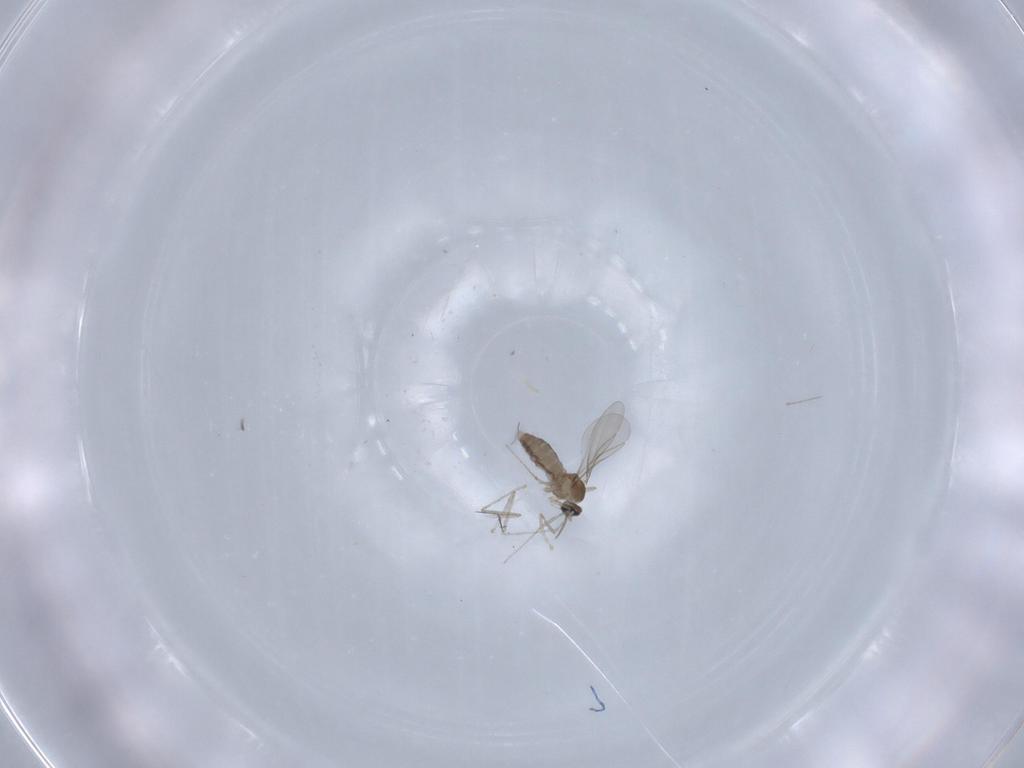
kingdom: Animalia
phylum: Arthropoda
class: Insecta
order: Diptera
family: Cecidomyiidae
